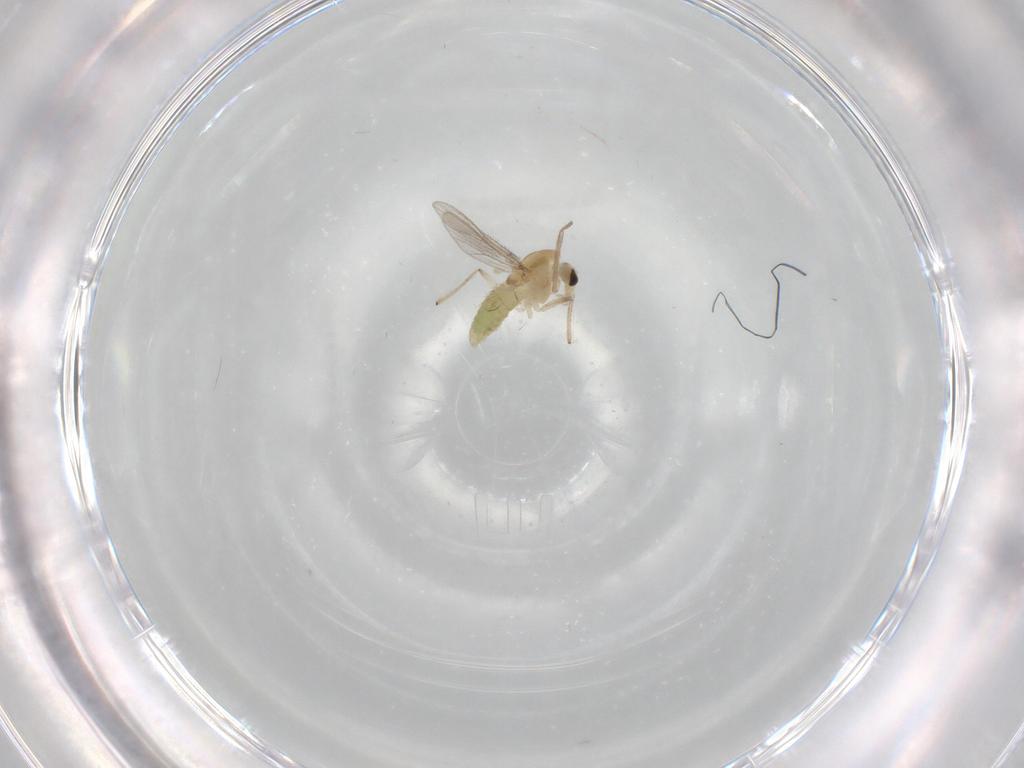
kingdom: Animalia
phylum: Arthropoda
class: Insecta
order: Diptera
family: Chironomidae
